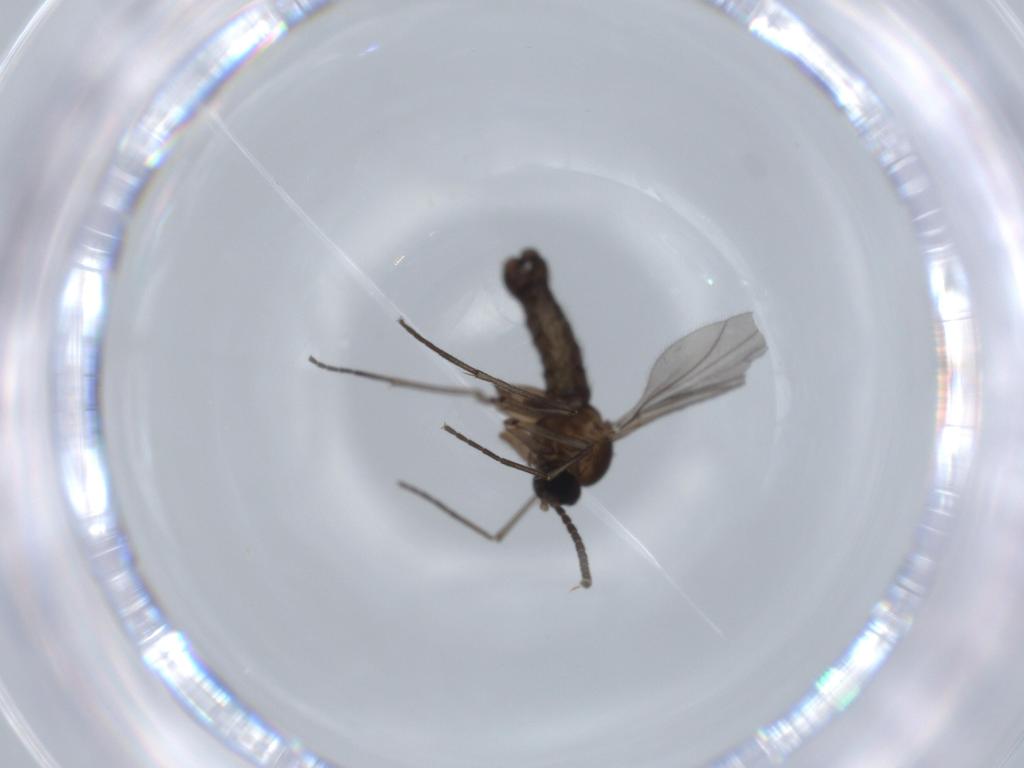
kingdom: Animalia
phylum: Arthropoda
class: Insecta
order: Diptera
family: Sciaridae
